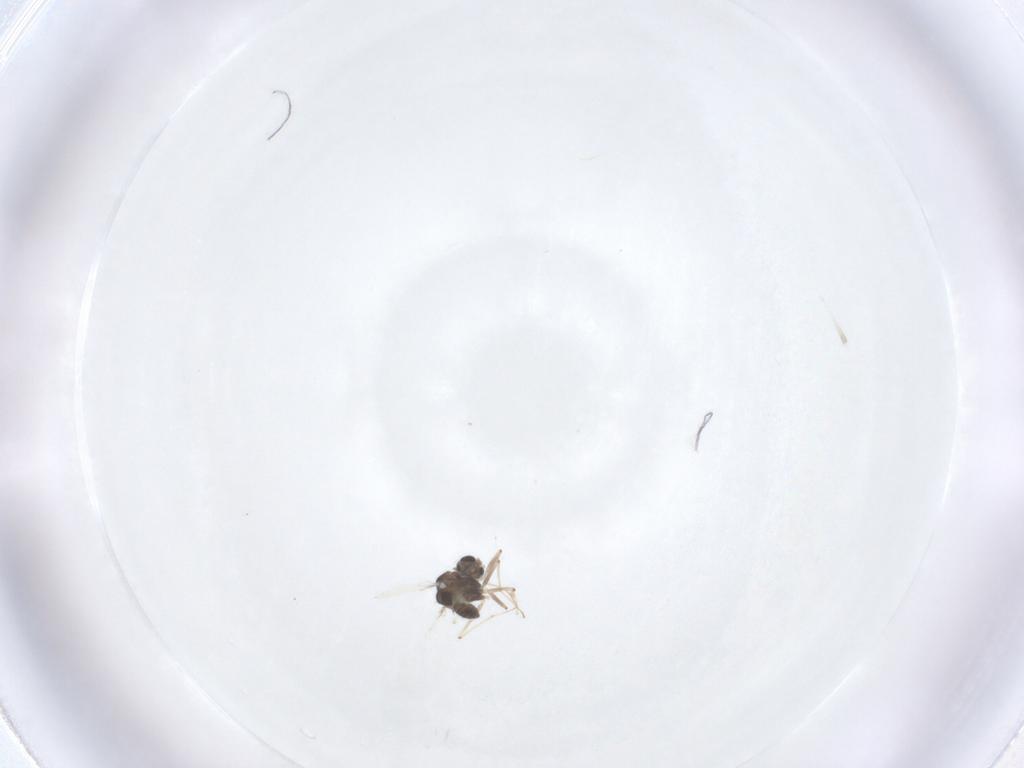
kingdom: Animalia
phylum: Arthropoda
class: Insecta
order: Diptera
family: Chironomidae
